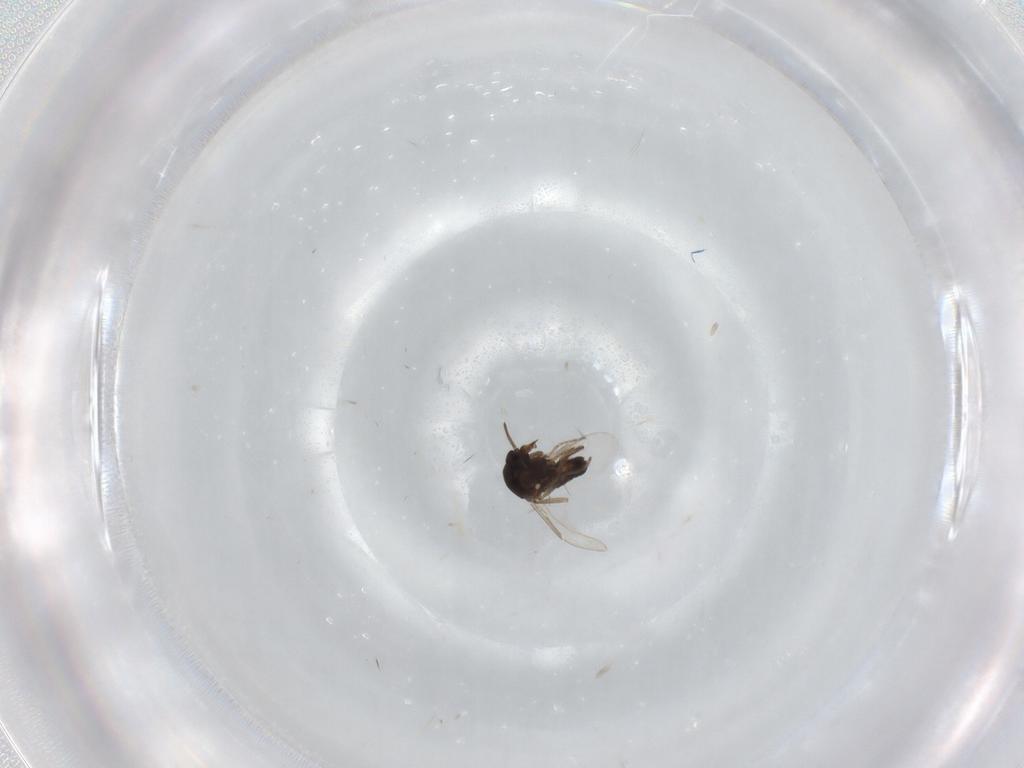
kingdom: Animalia
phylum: Arthropoda
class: Insecta
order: Diptera
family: Ceratopogonidae
